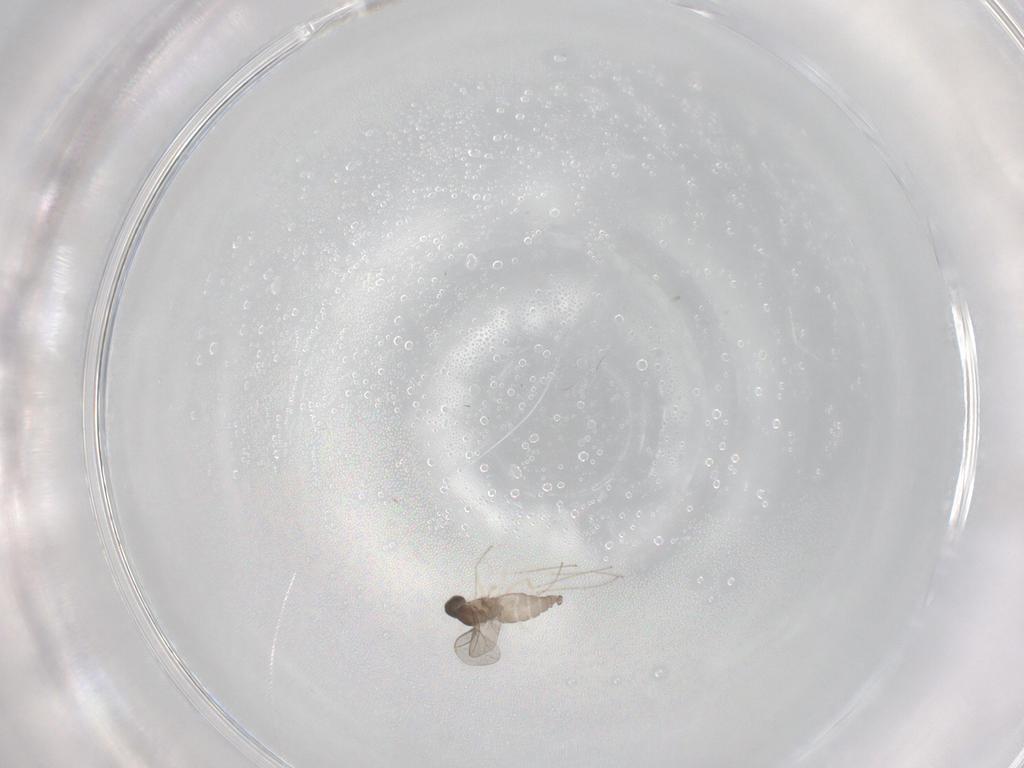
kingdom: Animalia
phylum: Arthropoda
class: Insecta
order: Diptera
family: Cecidomyiidae
